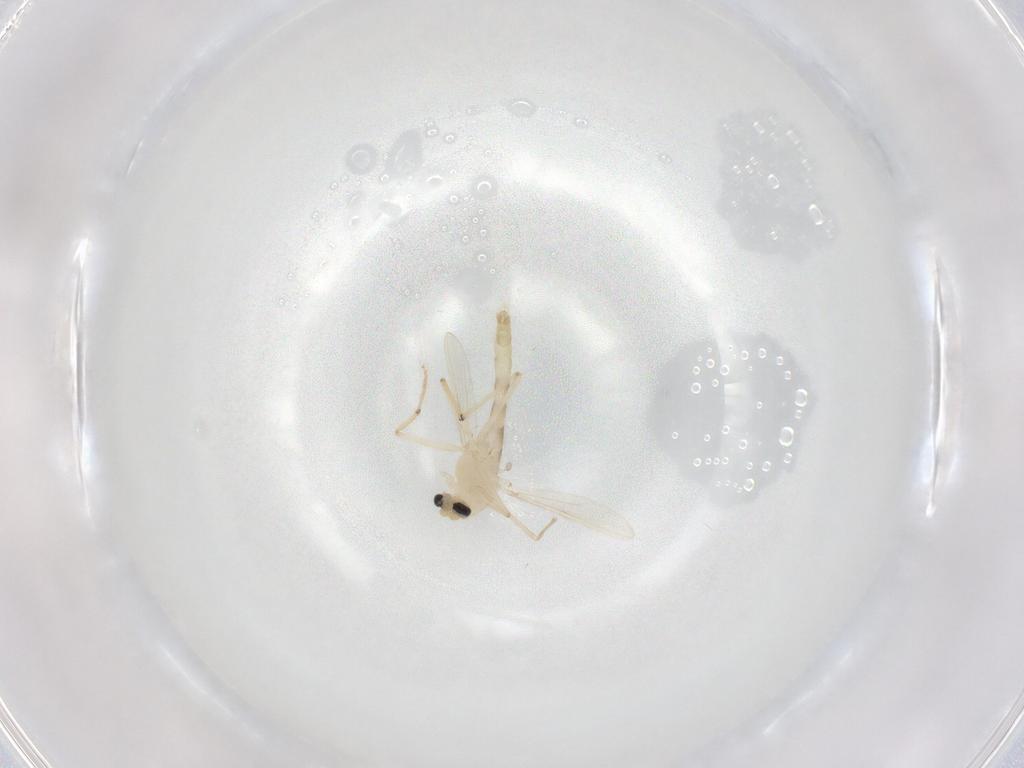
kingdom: Animalia
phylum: Arthropoda
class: Insecta
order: Diptera
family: Chironomidae
